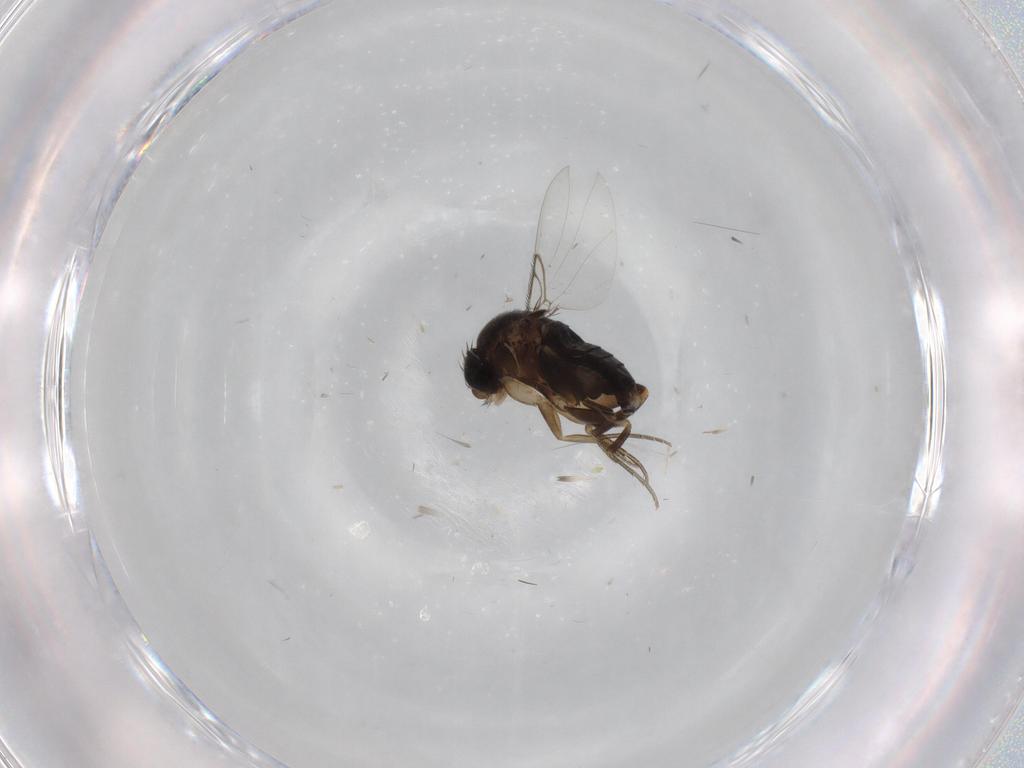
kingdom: Animalia
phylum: Arthropoda
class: Insecta
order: Diptera
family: Phoridae
